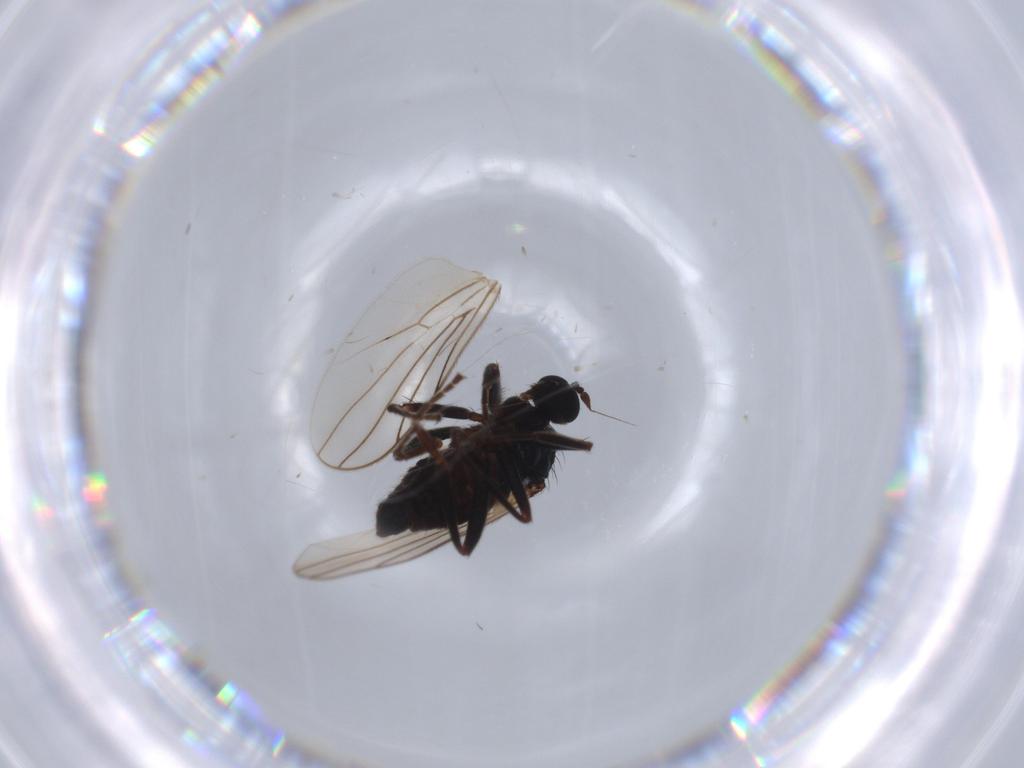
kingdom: Animalia
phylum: Arthropoda
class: Insecta
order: Diptera
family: Hybotidae
